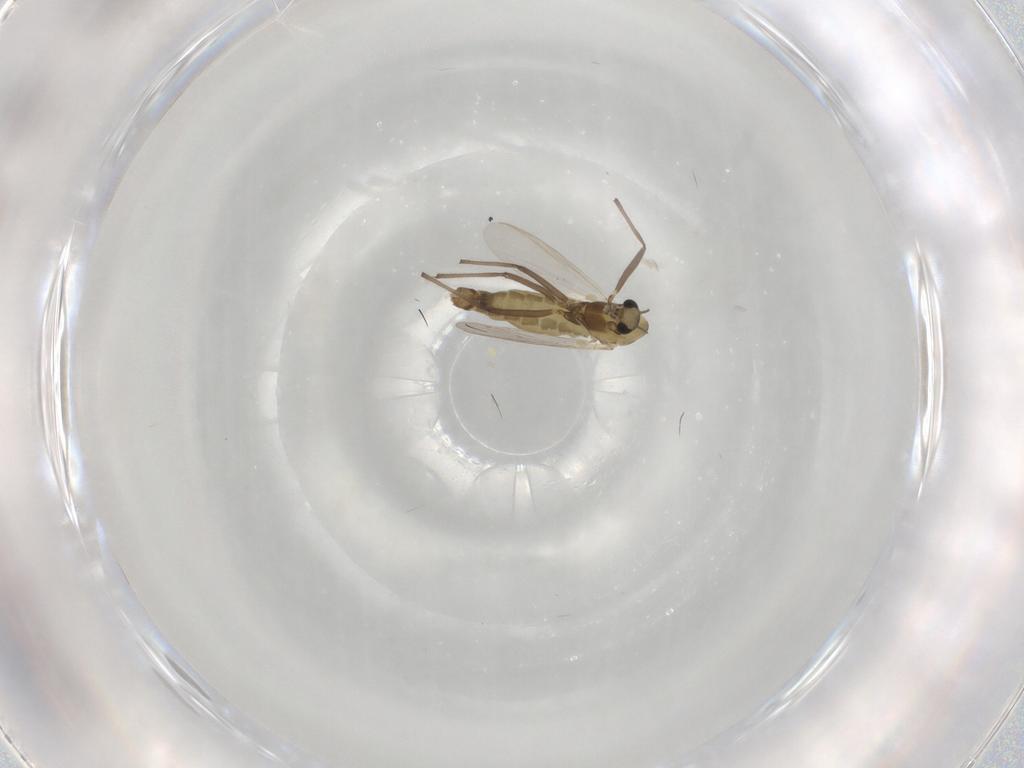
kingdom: Animalia
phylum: Arthropoda
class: Insecta
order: Diptera
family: Chironomidae
